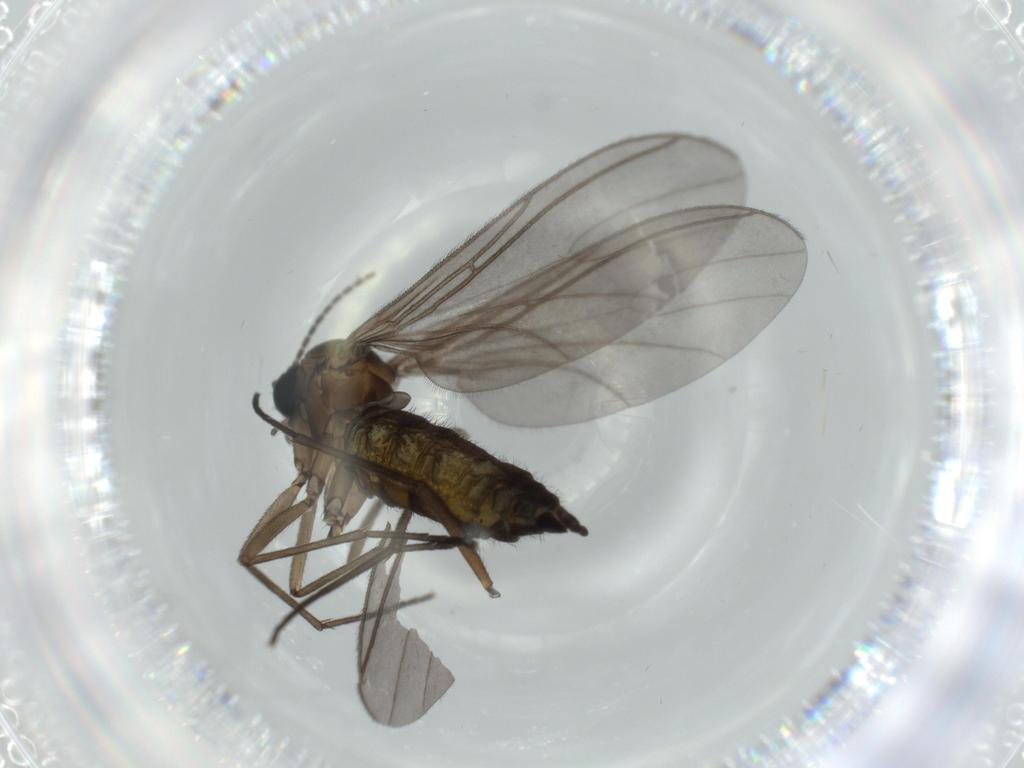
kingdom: Animalia
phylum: Arthropoda
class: Insecta
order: Diptera
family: Sciaridae
